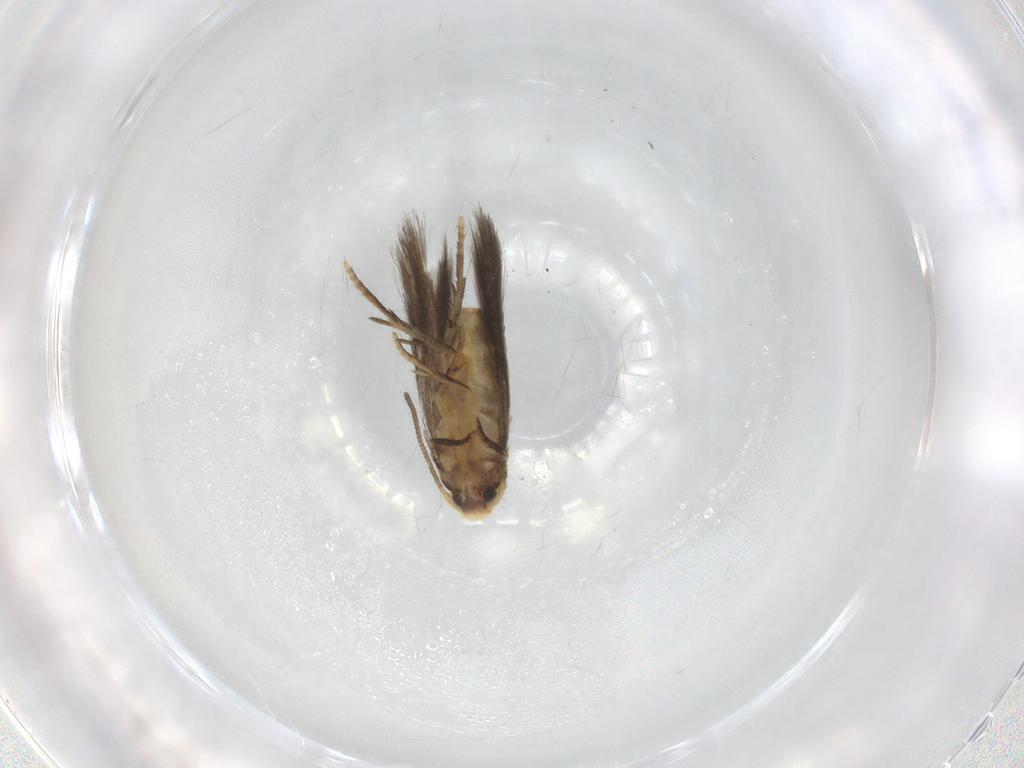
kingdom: Animalia
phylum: Arthropoda
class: Insecta
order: Lepidoptera
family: Nepticulidae
